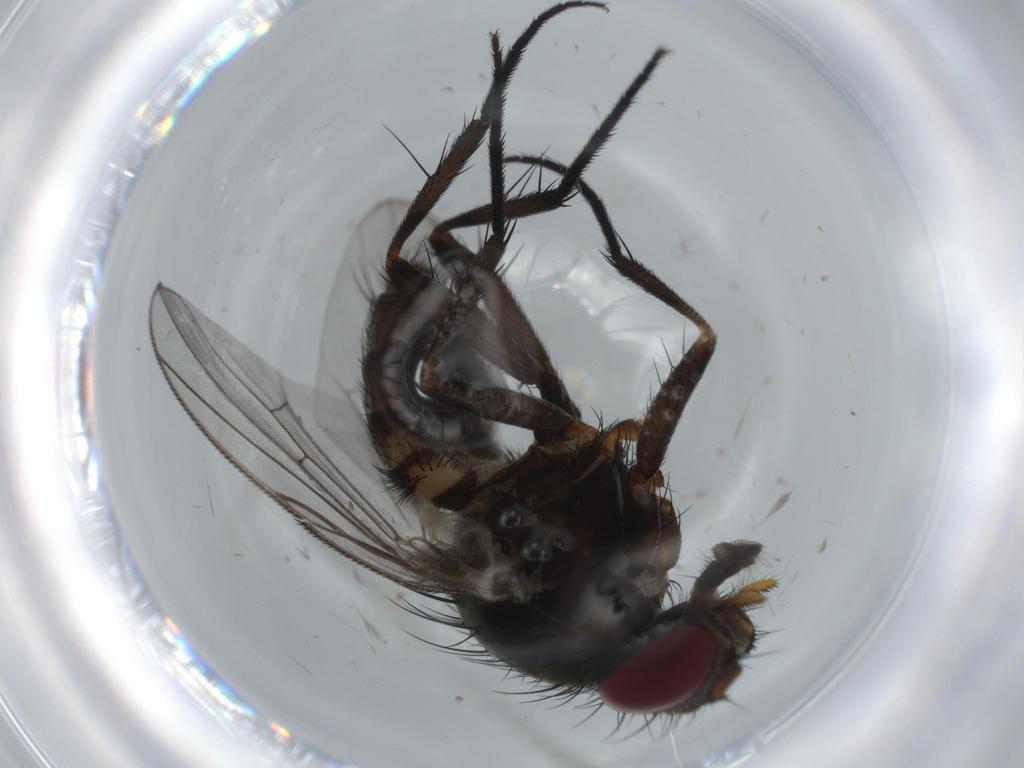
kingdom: Animalia
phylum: Arthropoda
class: Insecta
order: Diptera
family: Fannia
